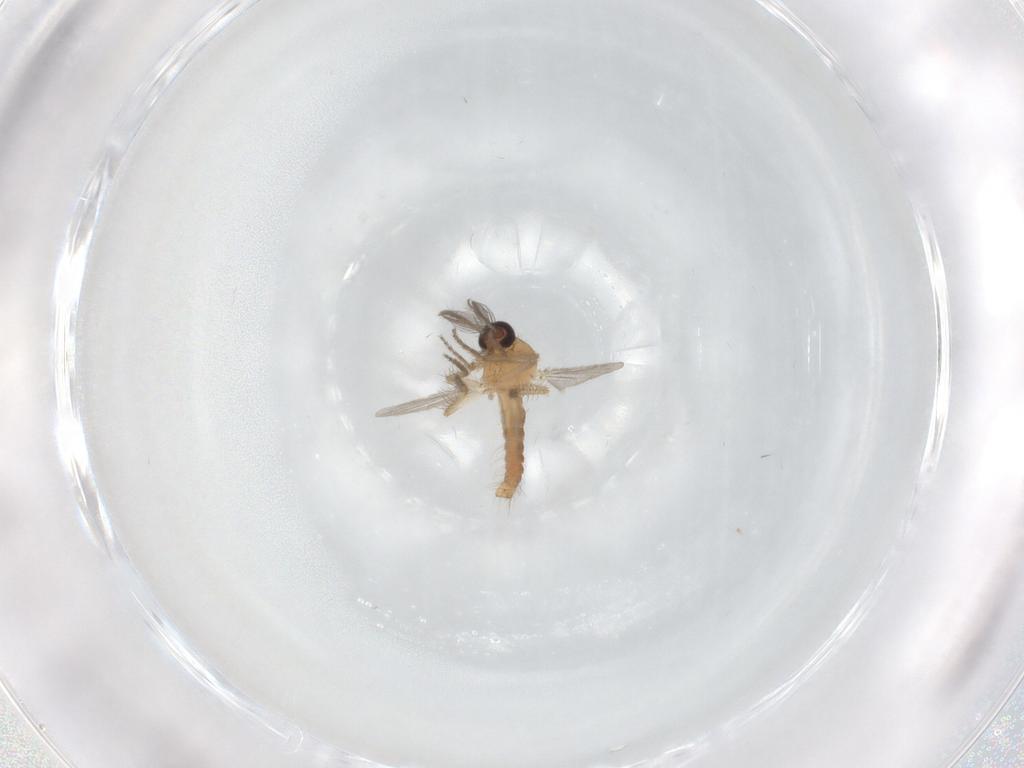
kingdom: Animalia
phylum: Arthropoda
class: Insecta
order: Diptera
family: Ceratopogonidae
